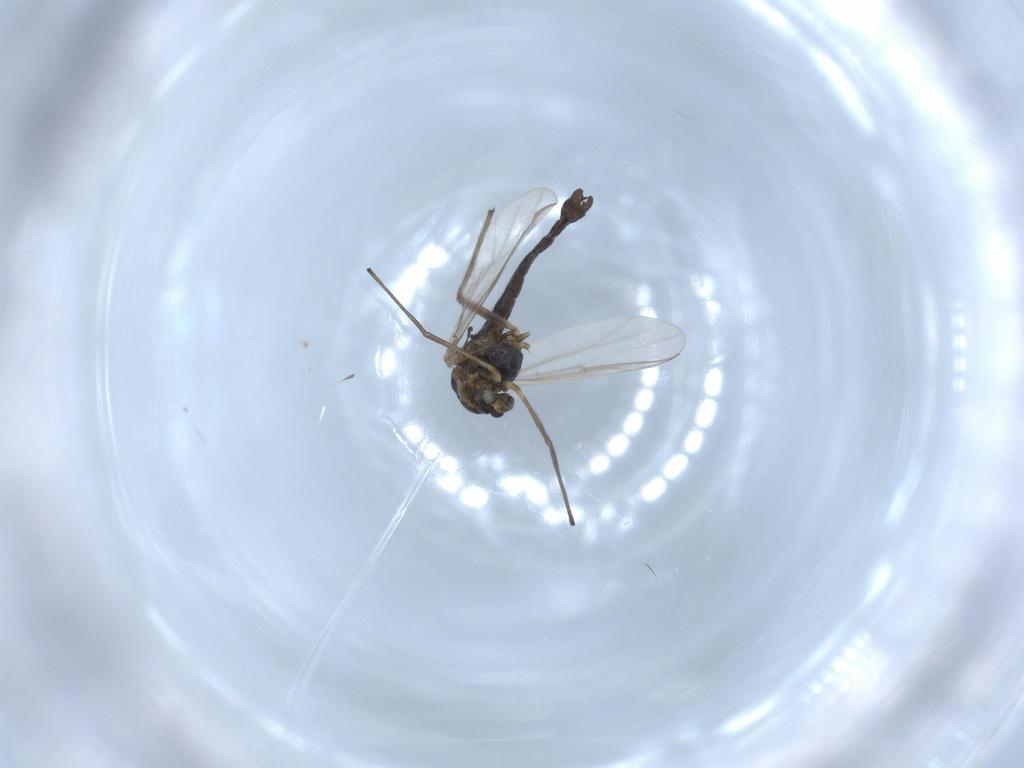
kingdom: Animalia
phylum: Arthropoda
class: Insecta
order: Diptera
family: Chironomidae
